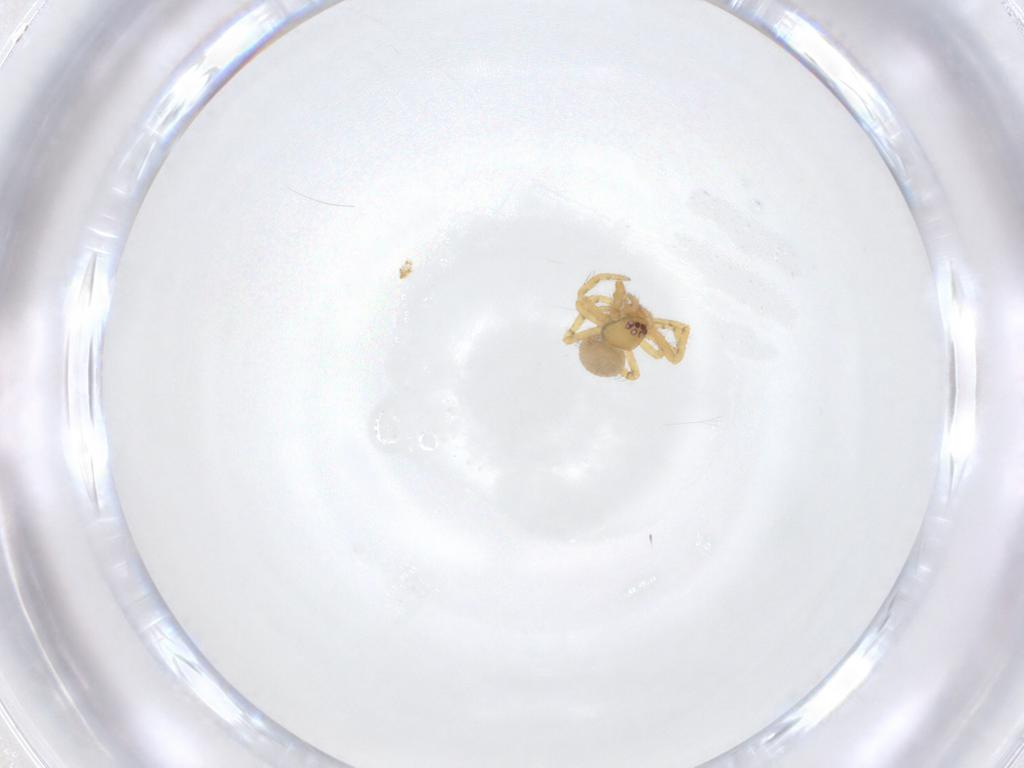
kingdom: Animalia
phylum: Arthropoda
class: Arachnida
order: Araneae
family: Theridiidae
